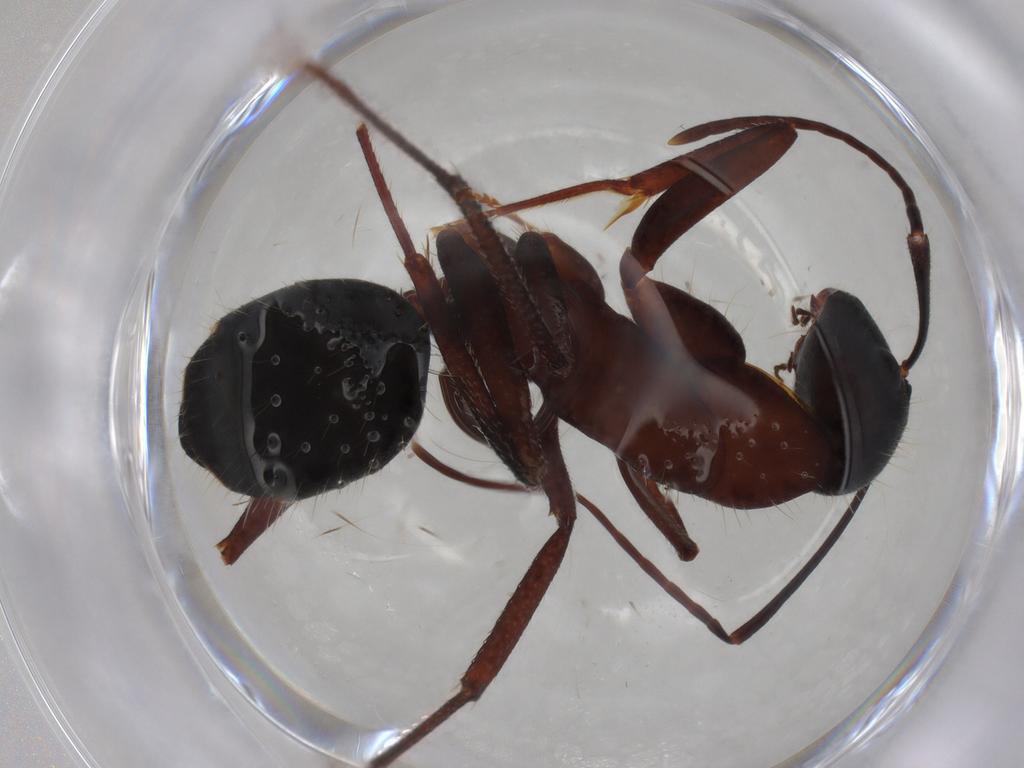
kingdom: Animalia
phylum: Arthropoda
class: Insecta
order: Hymenoptera
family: Formicidae
